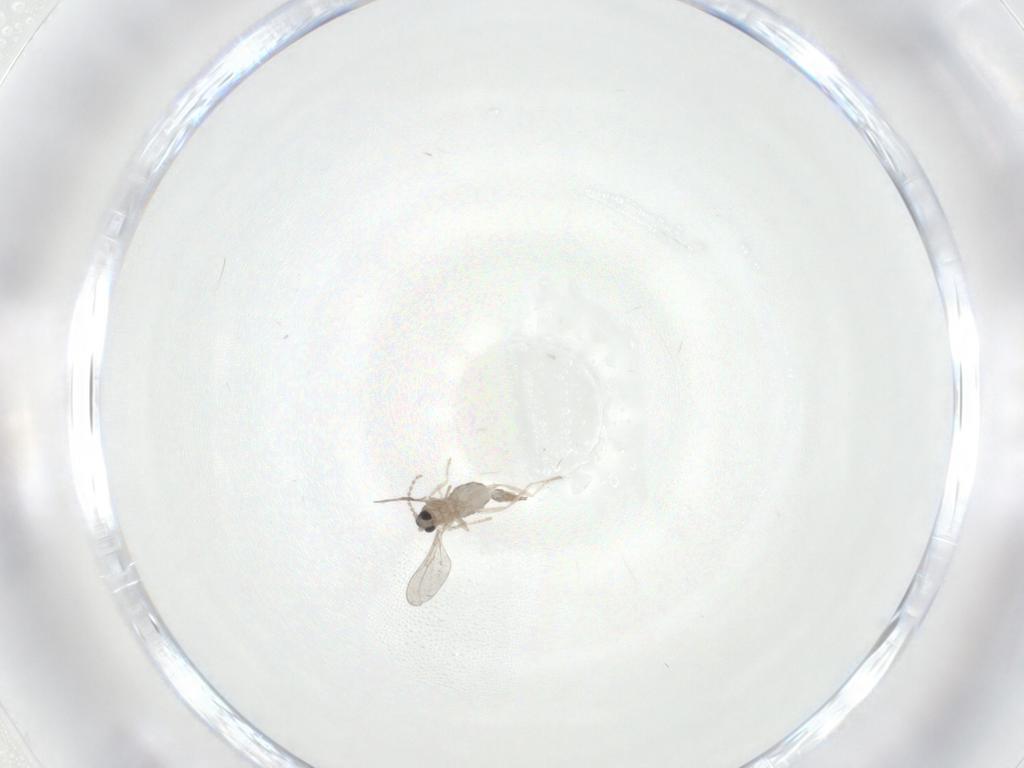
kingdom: Animalia
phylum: Arthropoda
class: Insecta
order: Diptera
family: Cecidomyiidae
